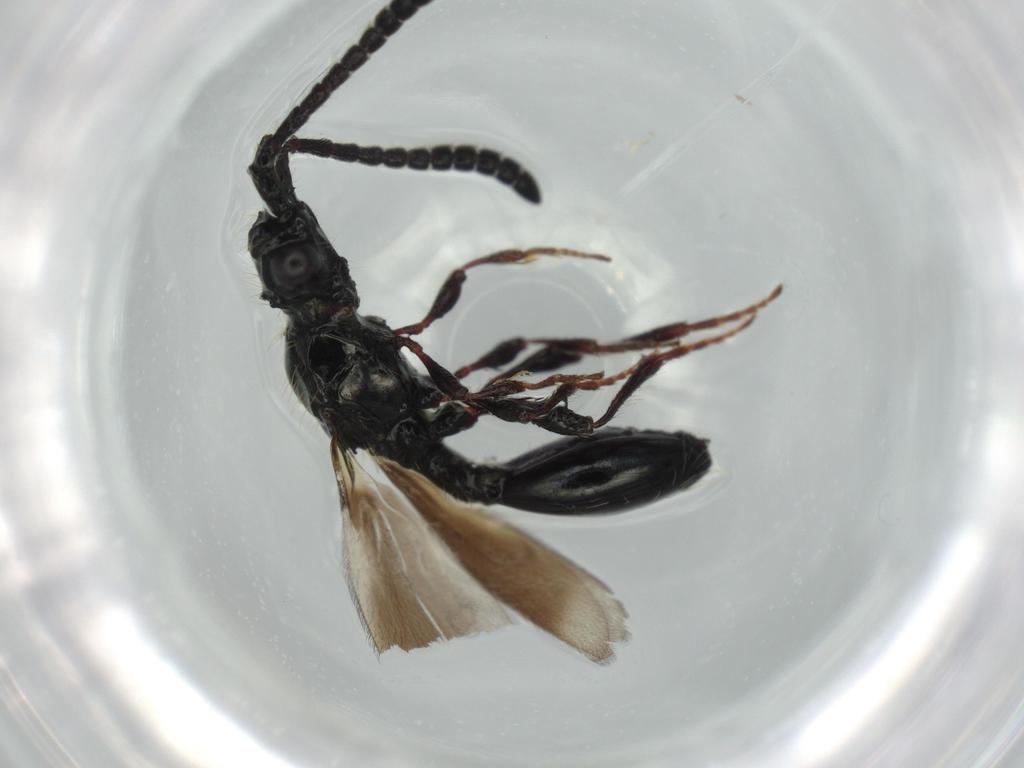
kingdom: Animalia
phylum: Arthropoda
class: Insecta
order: Hymenoptera
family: Diapriidae
